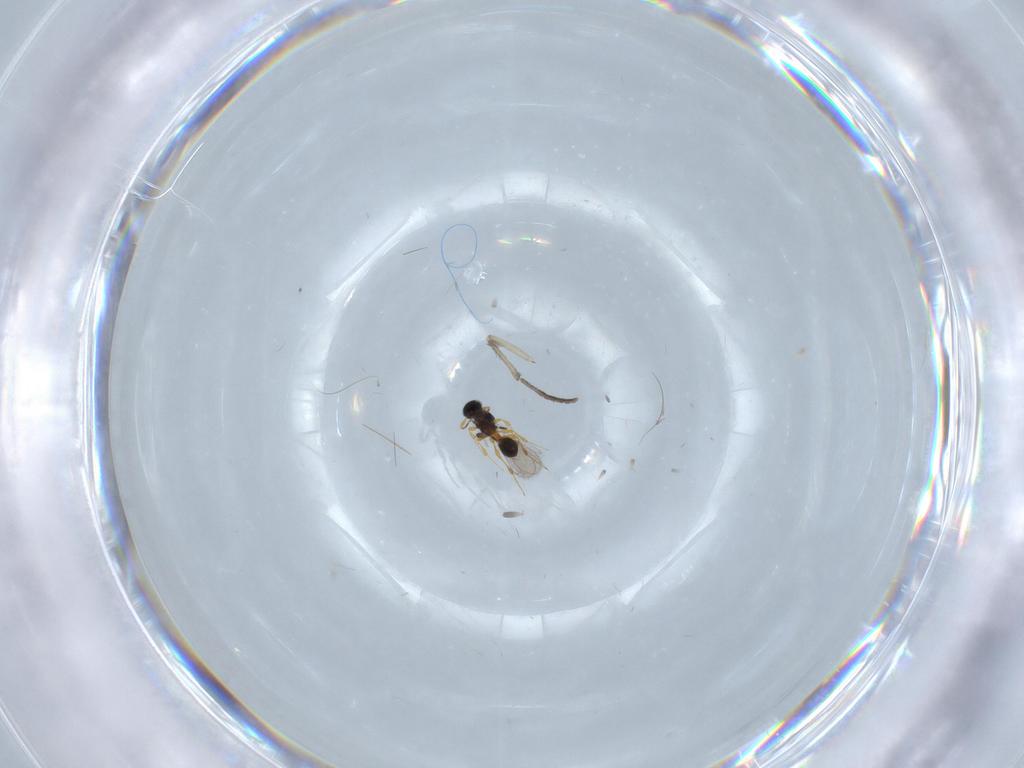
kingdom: Animalia
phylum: Arthropoda
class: Insecta
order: Hymenoptera
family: Platygastridae
